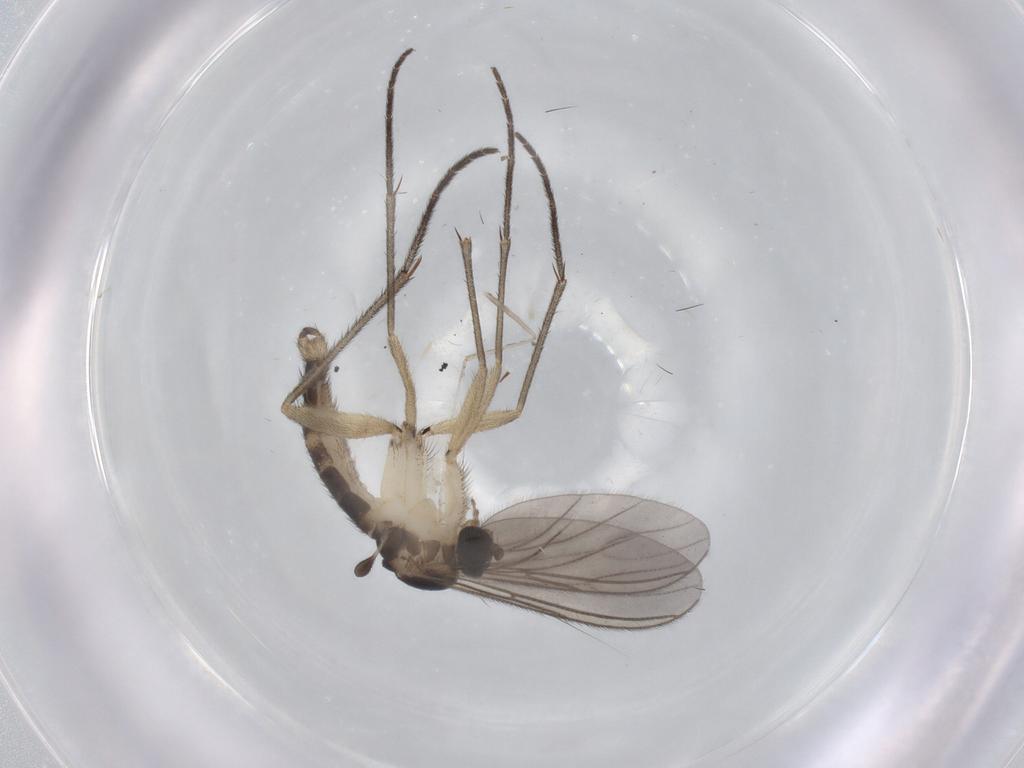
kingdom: Animalia
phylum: Arthropoda
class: Insecta
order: Diptera
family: Sciaridae
